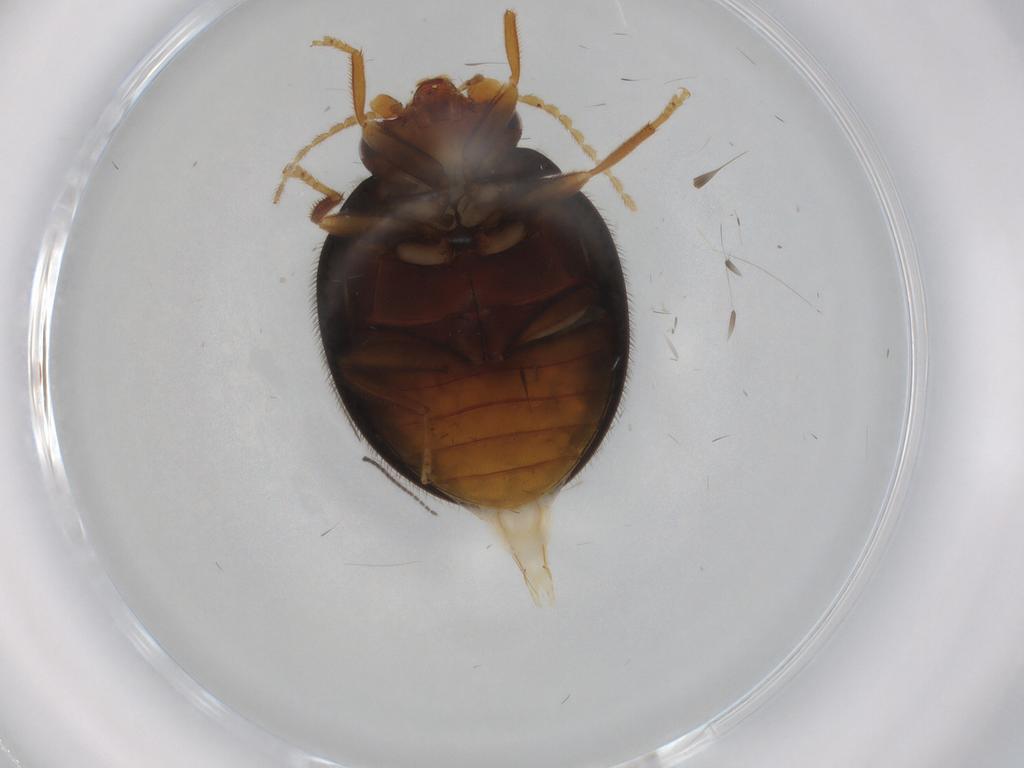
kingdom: Animalia
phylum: Arthropoda
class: Insecta
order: Coleoptera
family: Scirtidae
